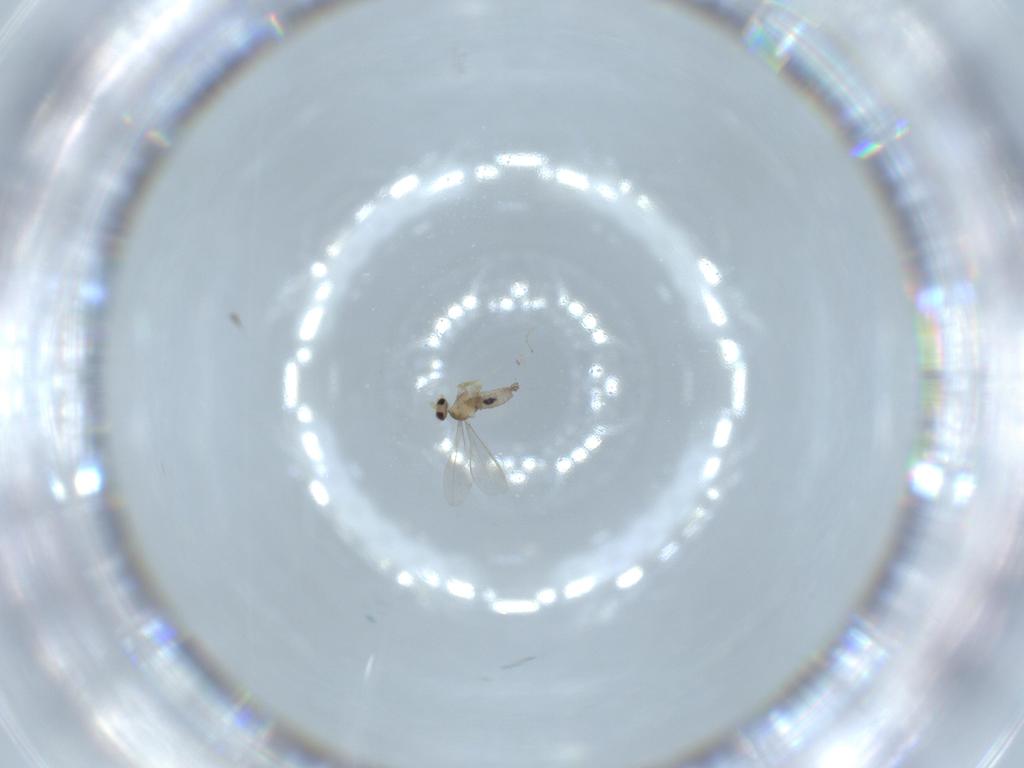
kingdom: Animalia
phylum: Arthropoda
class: Insecta
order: Diptera
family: Cecidomyiidae
